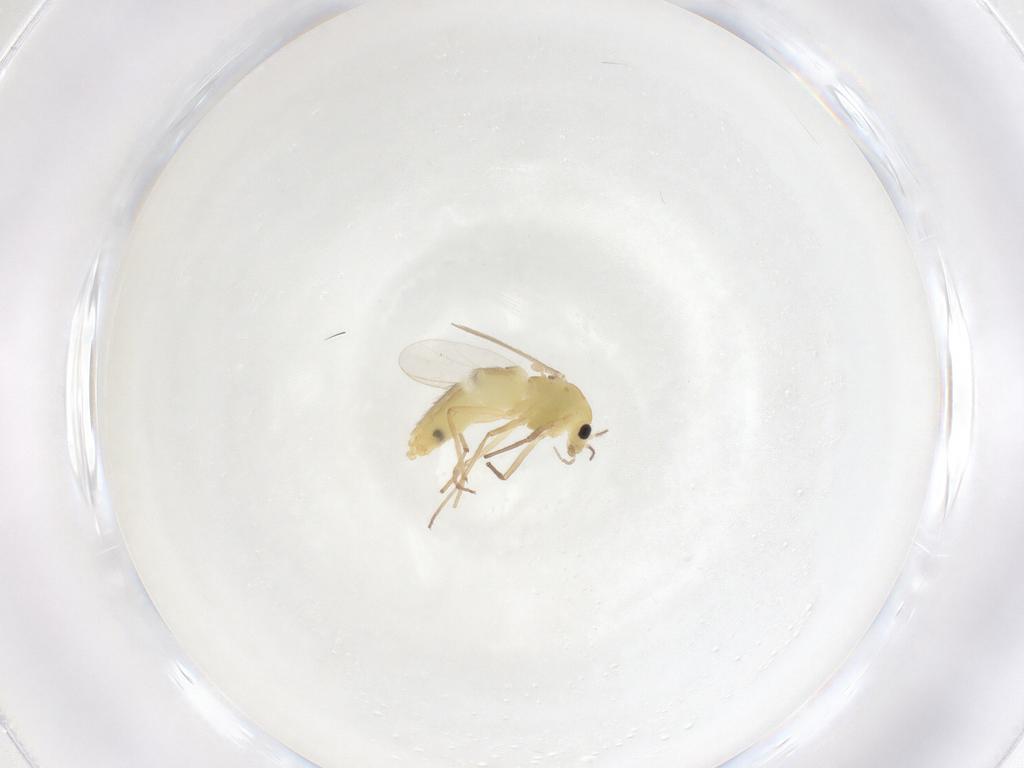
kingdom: Animalia
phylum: Arthropoda
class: Insecta
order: Diptera
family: Chironomidae
